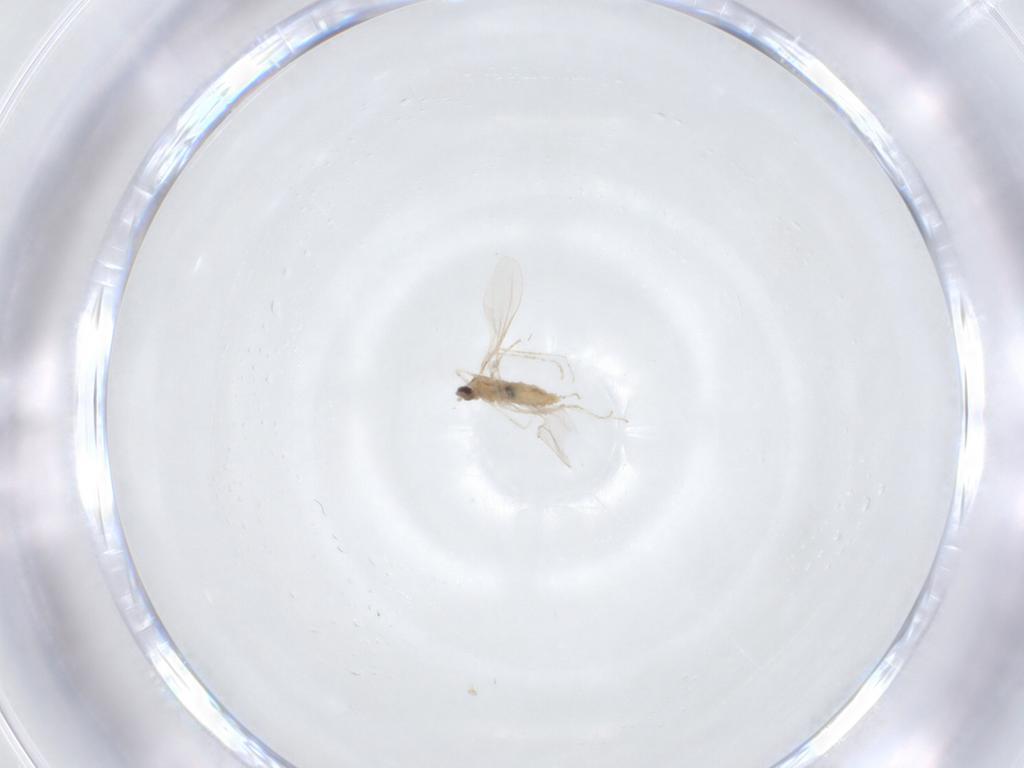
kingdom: Animalia
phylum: Arthropoda
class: Insecta
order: Diptera
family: Cecidomyiidae
